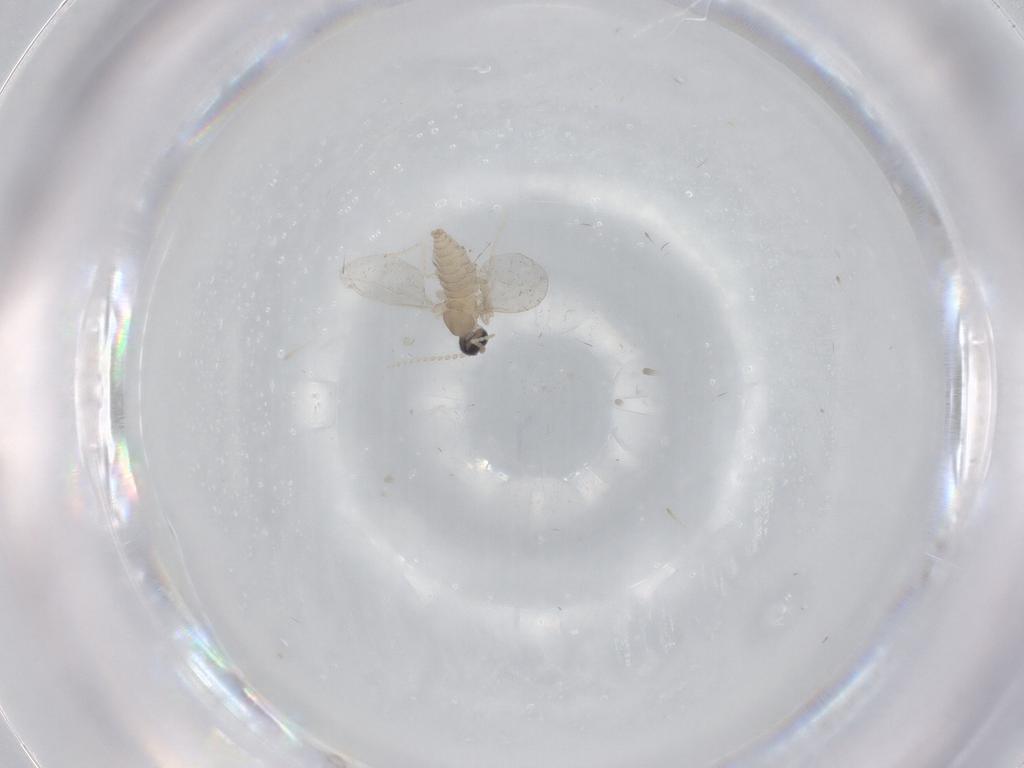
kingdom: Animalia
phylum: Arthropoda
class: Insecta
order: Diptera
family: Cecidomyiidae
